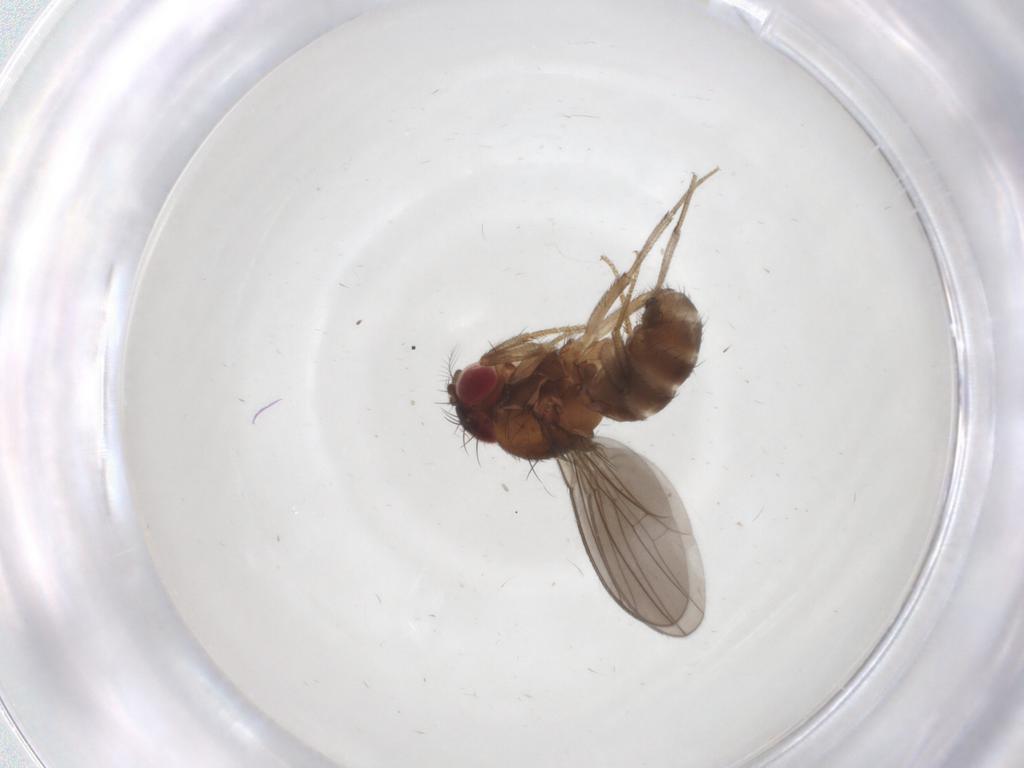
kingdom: Animalia
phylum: Arthropoda
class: Insecta
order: Diptera
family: Drosophilidae
